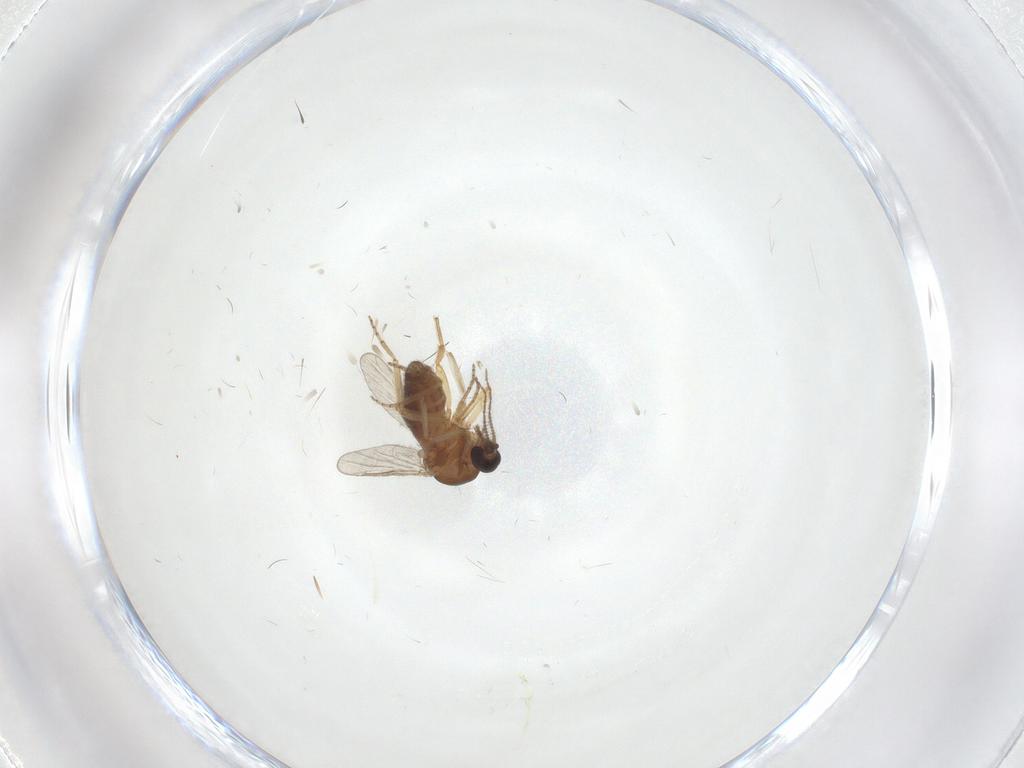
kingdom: Animalia
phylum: Arthropoda
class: Insecta
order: Diptera
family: Ceratopogonidae
